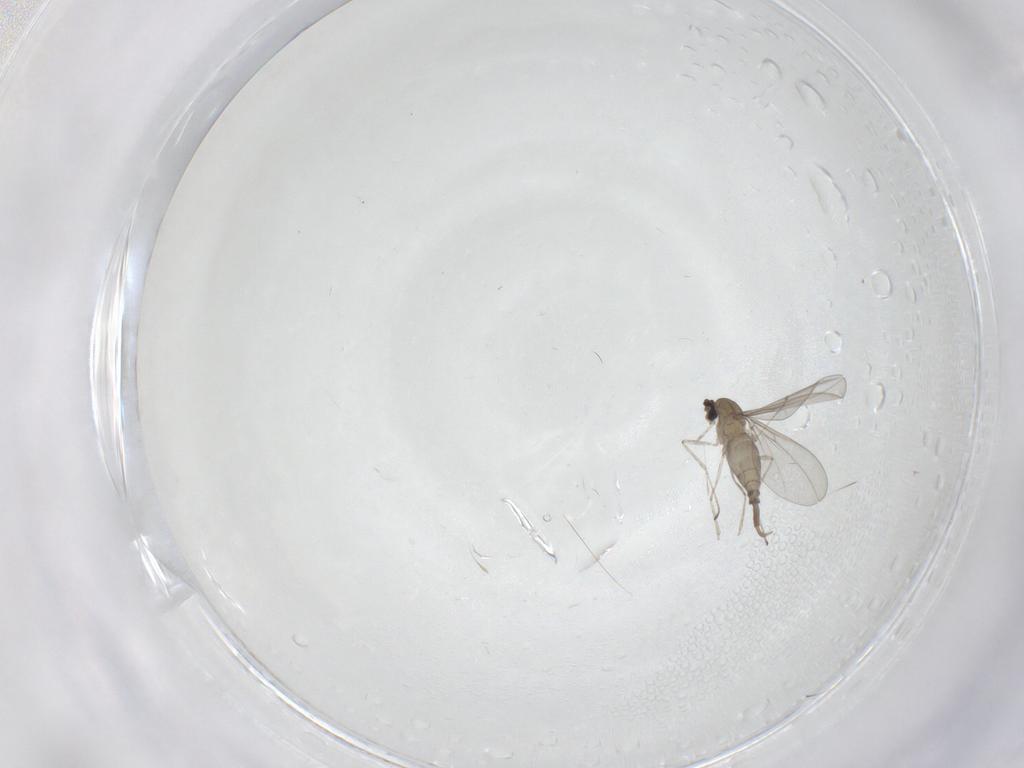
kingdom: Animalia
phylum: Arthropoda
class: Insecta
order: Diptera
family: Cecidomyiidae
